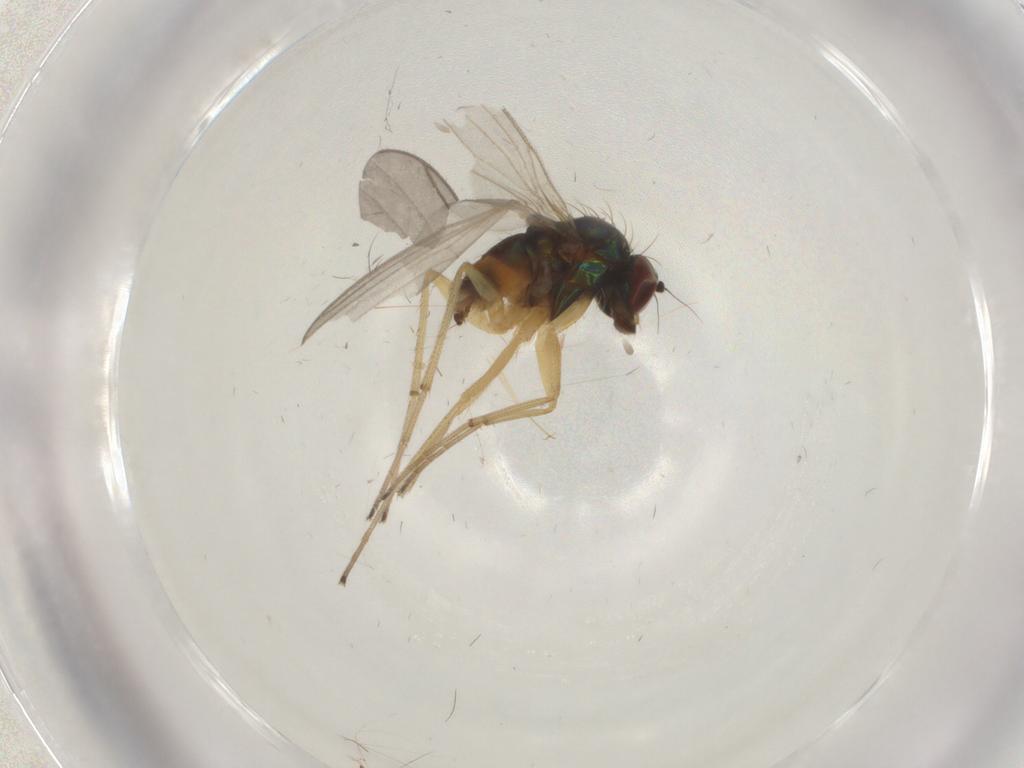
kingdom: Animalia
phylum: Arthropoda
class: Insecta
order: Diptera
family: Dolichopodidae
